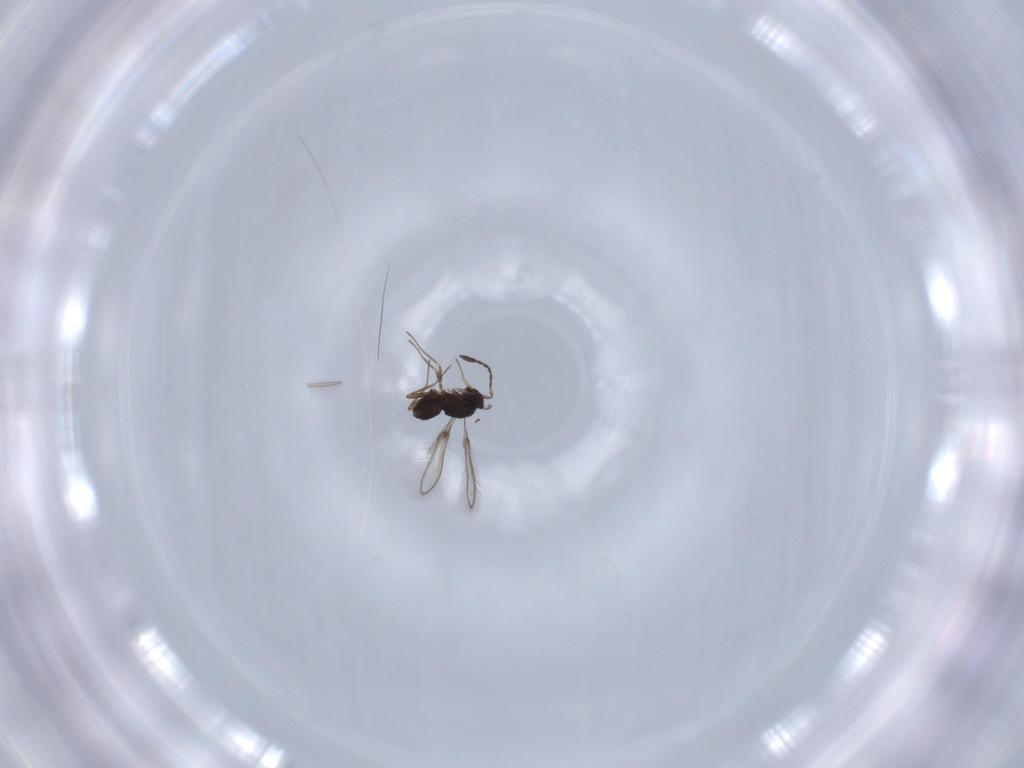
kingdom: Animalia
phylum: Arthropoda
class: Insecta
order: Hymenoptera
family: Mymaridae
